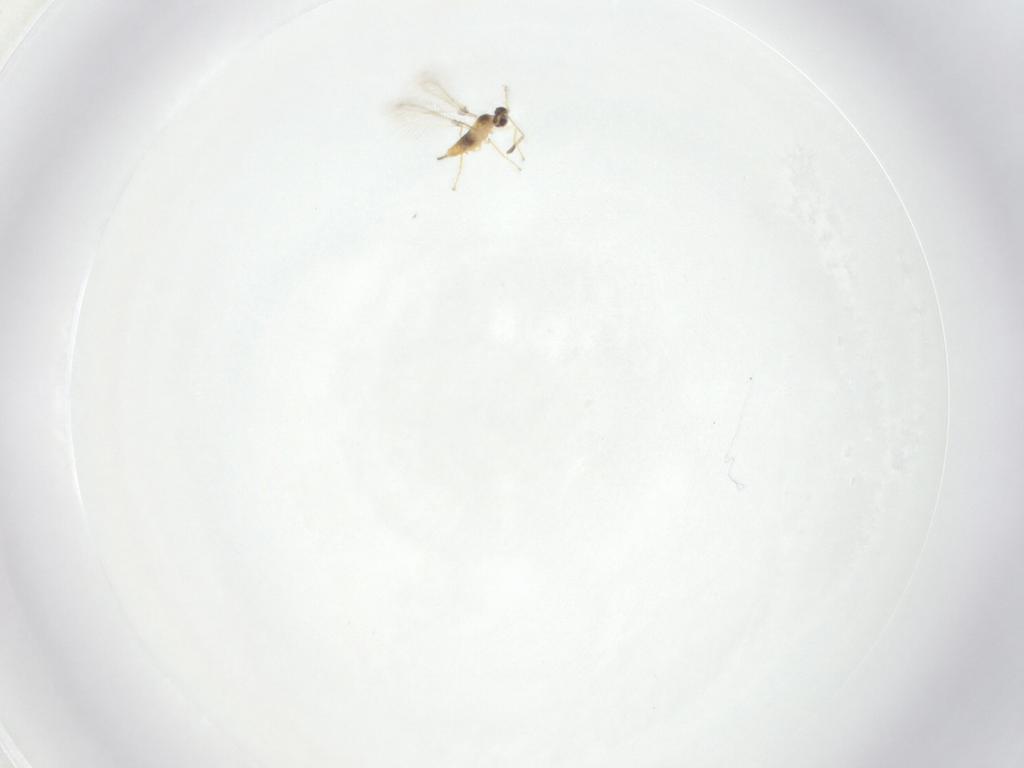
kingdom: Animalia
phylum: Arthropoda
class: Insecta
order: Hymenoptera
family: Mymaridae
